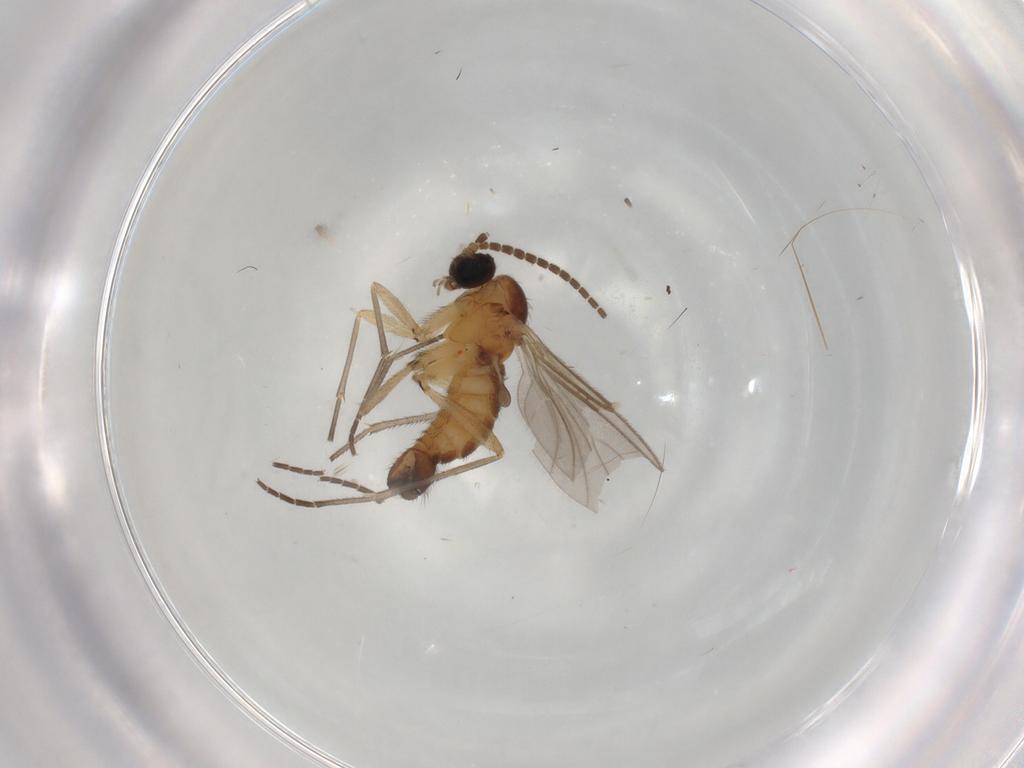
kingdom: Animalia
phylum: Arthropoda
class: Insecta
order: Diptera
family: Sciaridae
